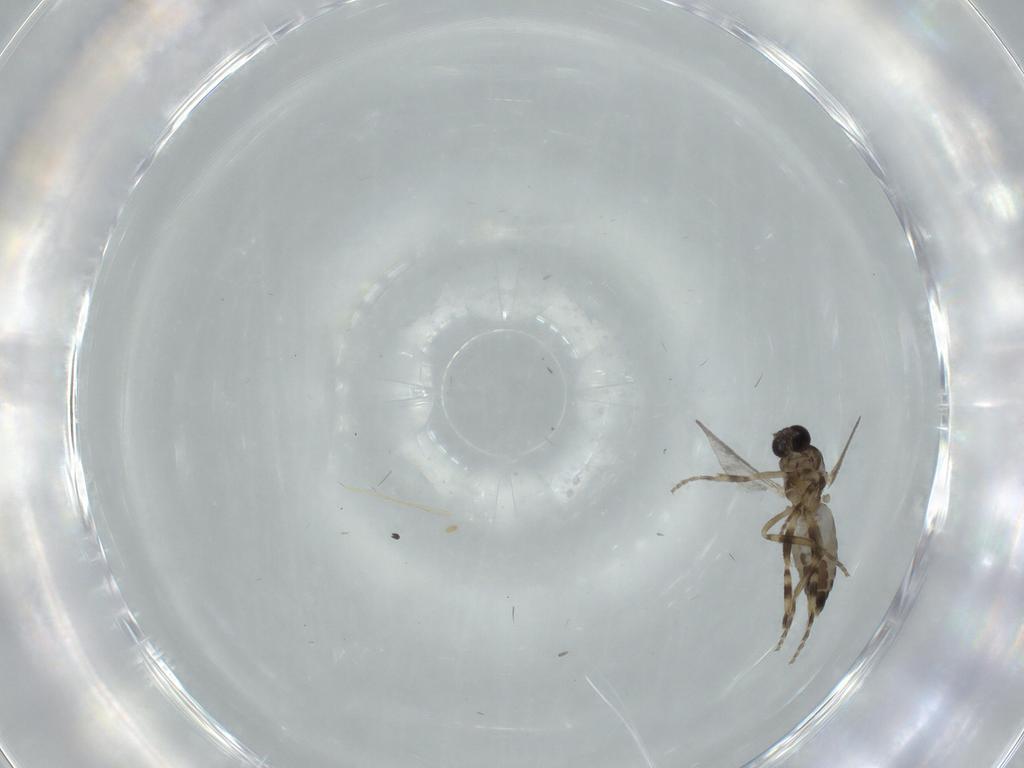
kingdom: Animalia
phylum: Arthropoda
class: Insecta
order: Diptera
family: Ceratopogonidae
